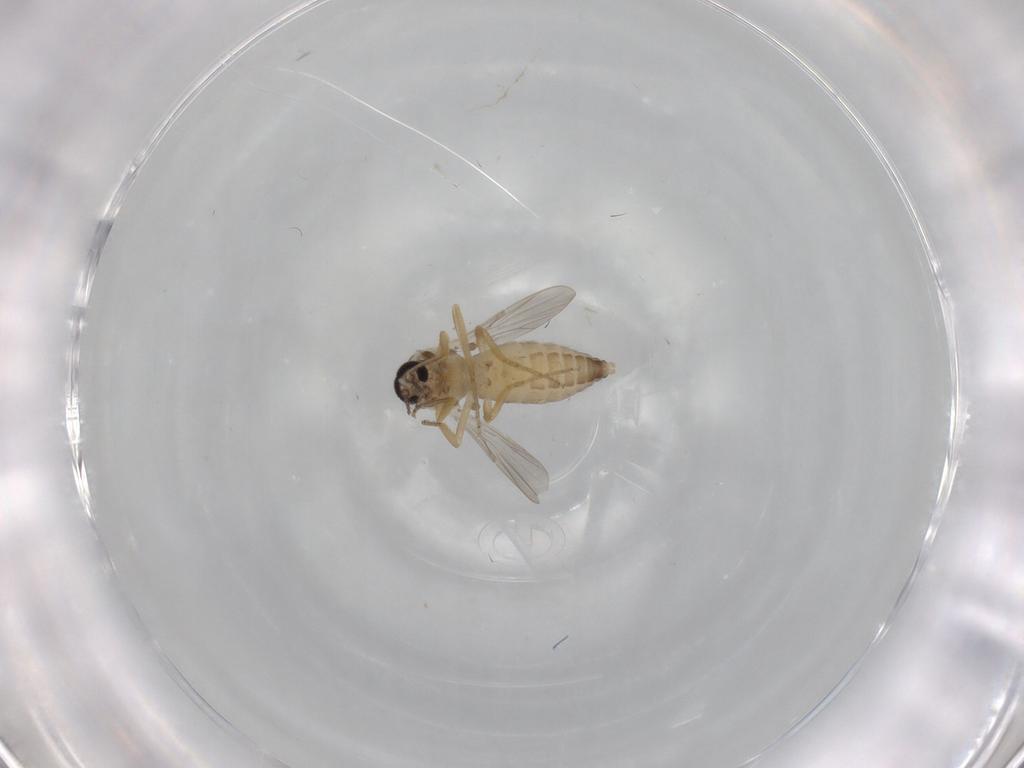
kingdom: Animalia
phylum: Arthropoda
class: Insecta
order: Diptera
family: Ceratopogonidae
